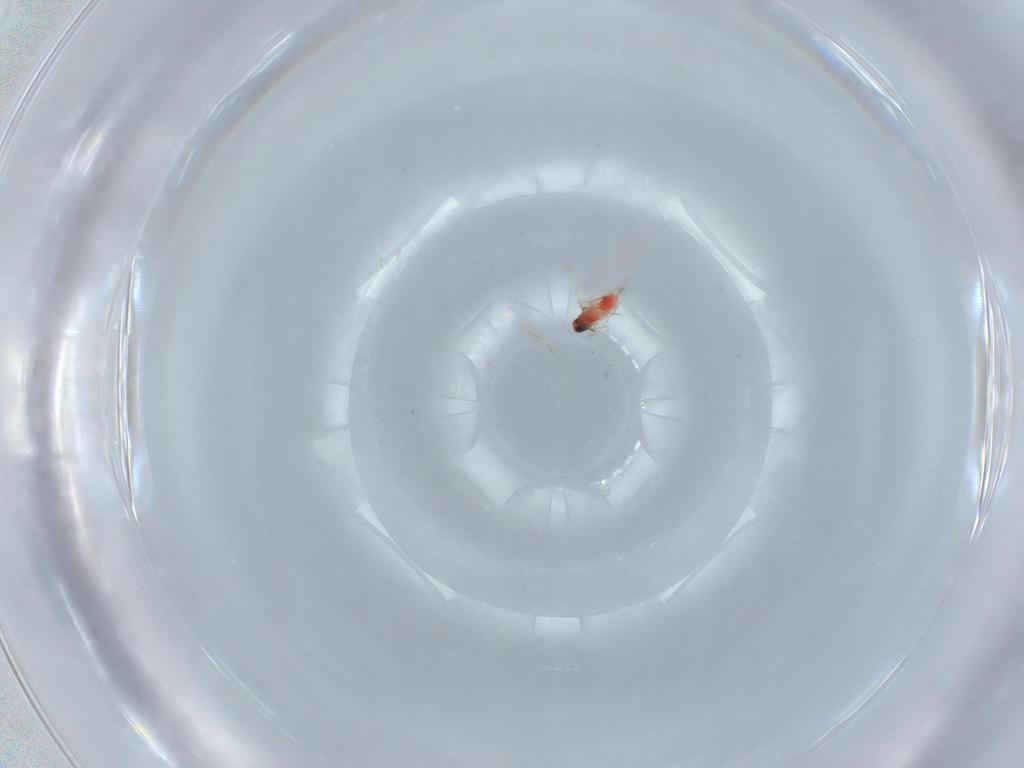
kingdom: Animalia
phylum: Arthropoda
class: Insecta
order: Hymenoptera
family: Trichogrammatidae
